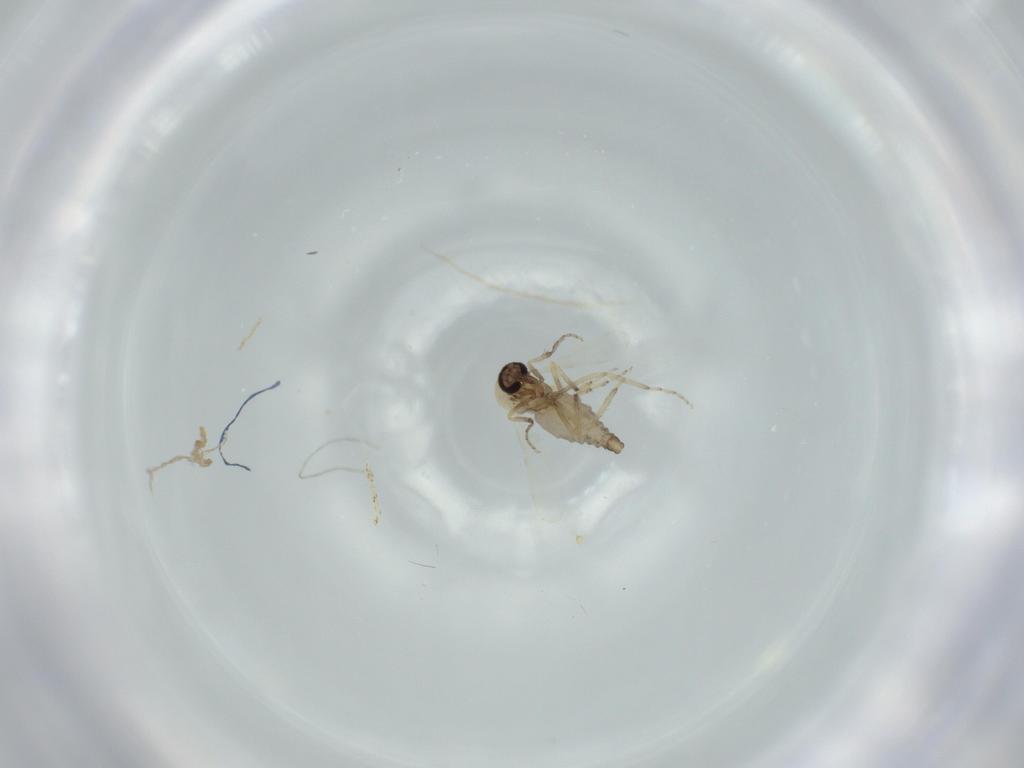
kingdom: Animalia
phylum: Arthropoda
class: Insecta
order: Diptera
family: Ceratopogonidae
